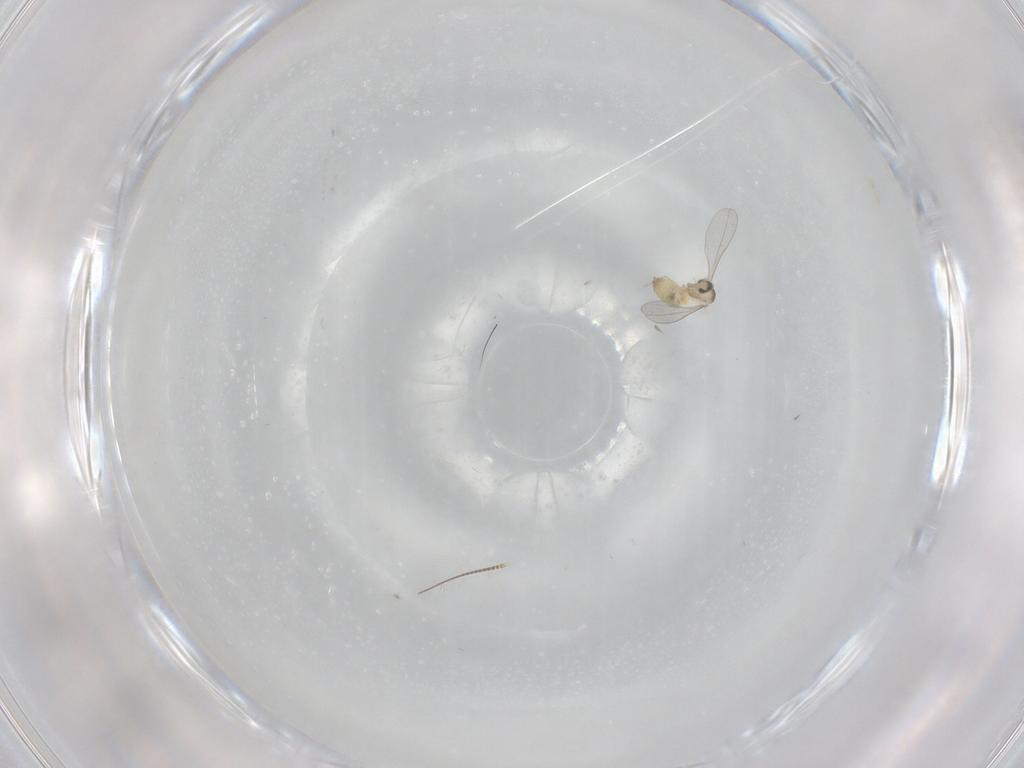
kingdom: Animalia
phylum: Arthropoda
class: Insecta
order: Diptera
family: Cecidomyiidae
